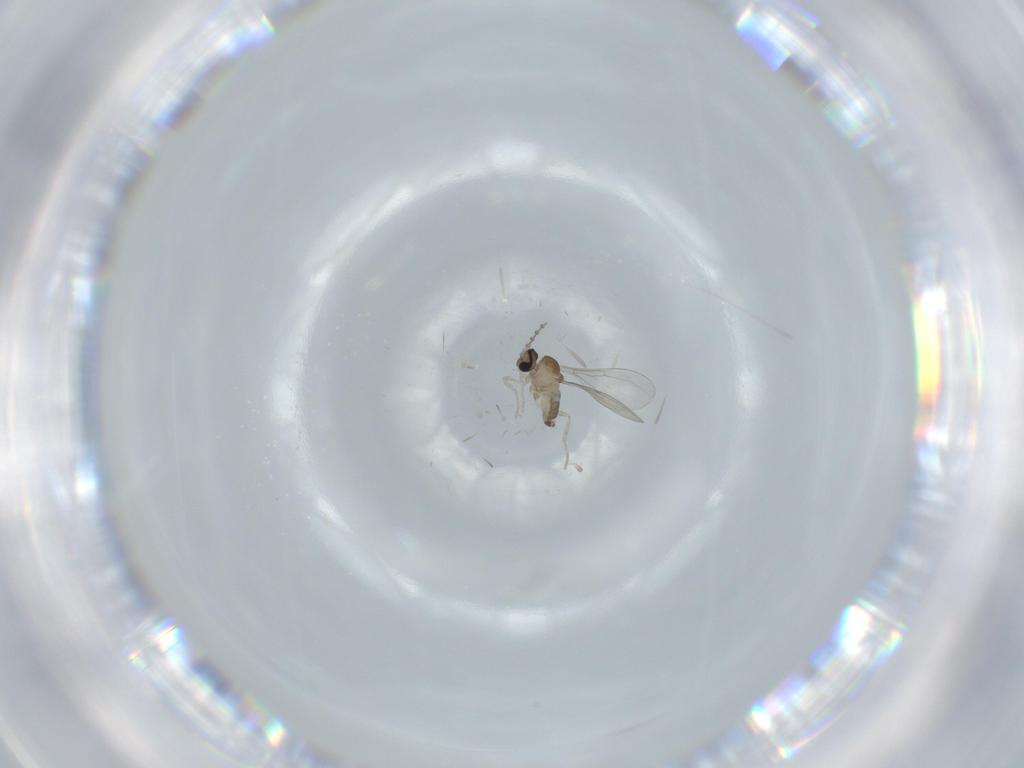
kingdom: Animalia
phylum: Arthropoda
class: Insecta
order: Diptera
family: Cecidomyiidae
